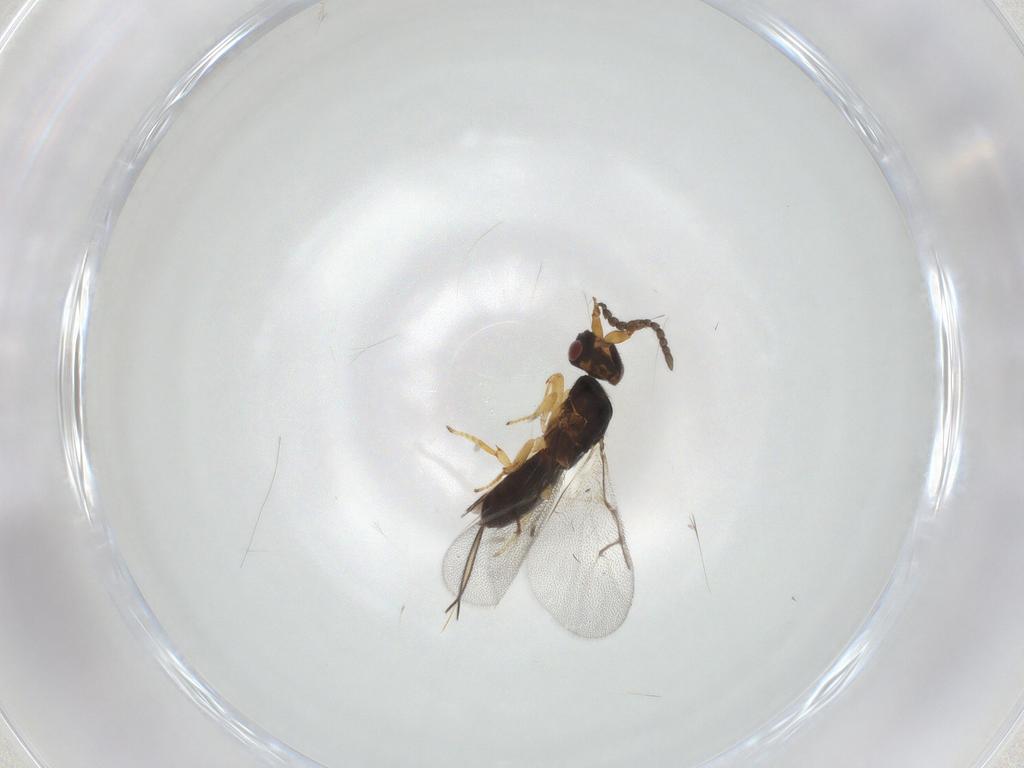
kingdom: Animalia
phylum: Arthropoda
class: Insecta
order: Hymenoptera
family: Agaonidae
